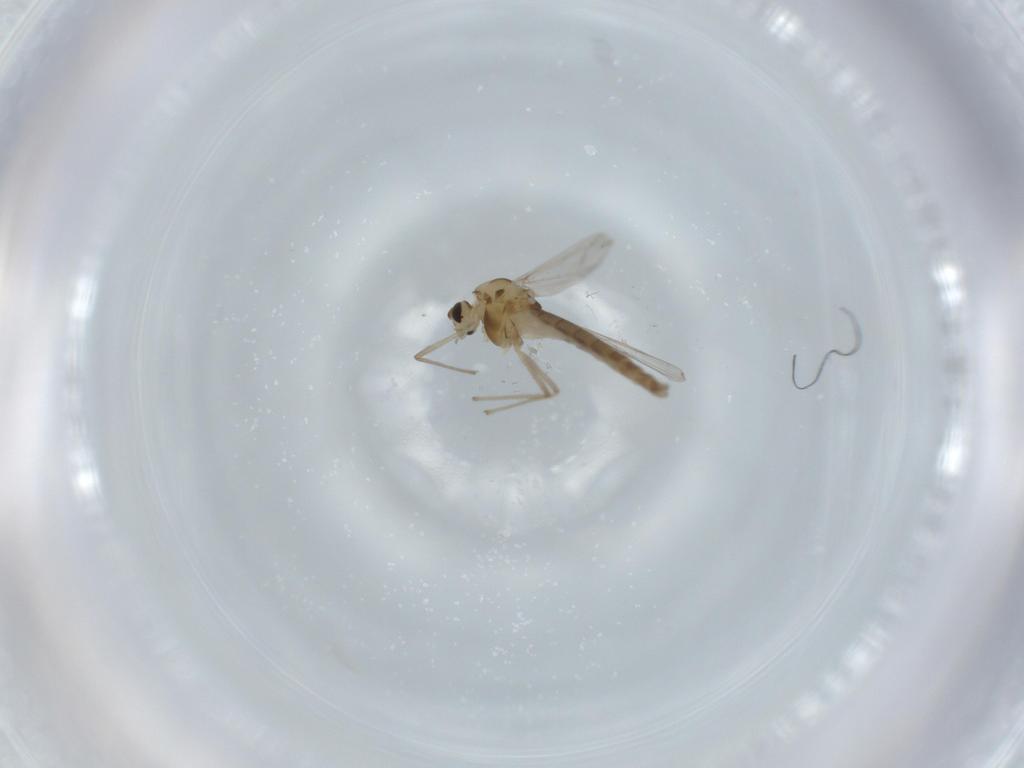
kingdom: Animalia
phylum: Arthropoda
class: Insecta
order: Diptera
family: Chironomidae
